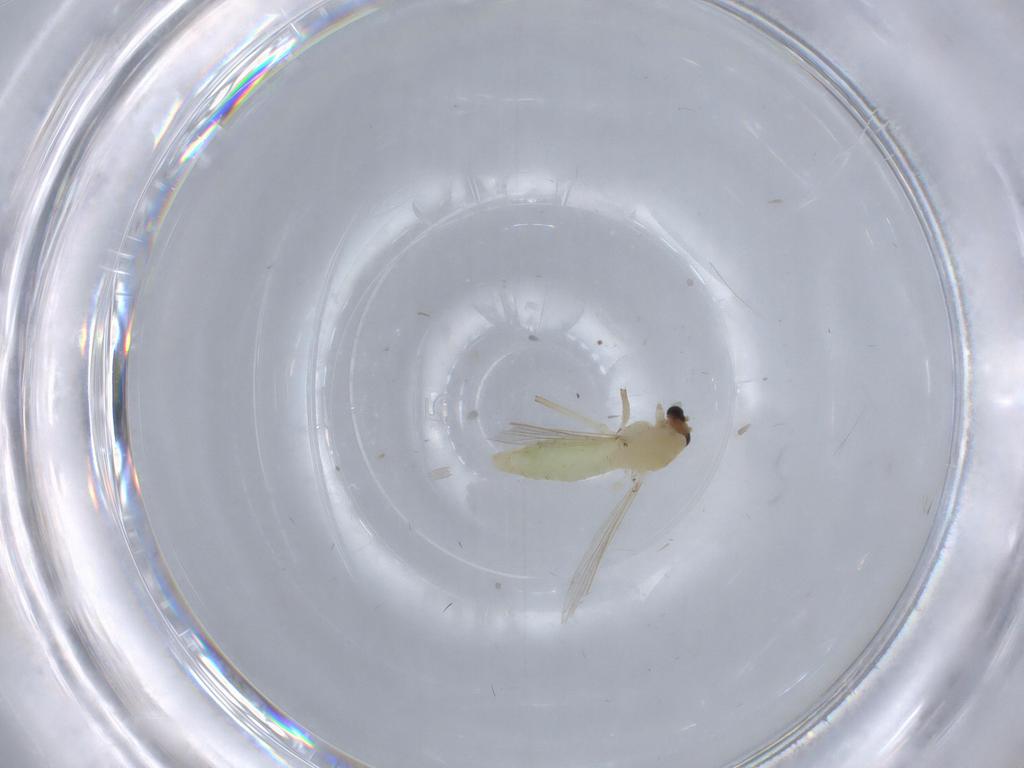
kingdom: Animalia
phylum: Arthropoda
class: Insecta
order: Diptera
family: Chironomidae
